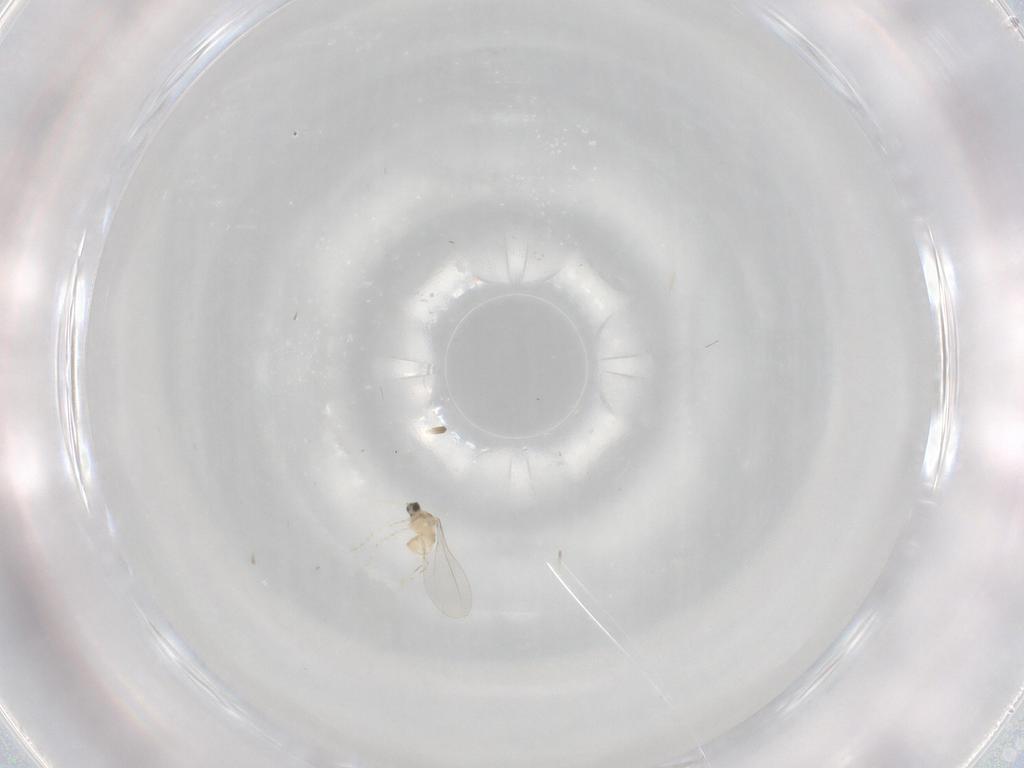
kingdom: Animalia
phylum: Arthropoda
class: Insecta
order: Diptera
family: Cecidomyiidae
